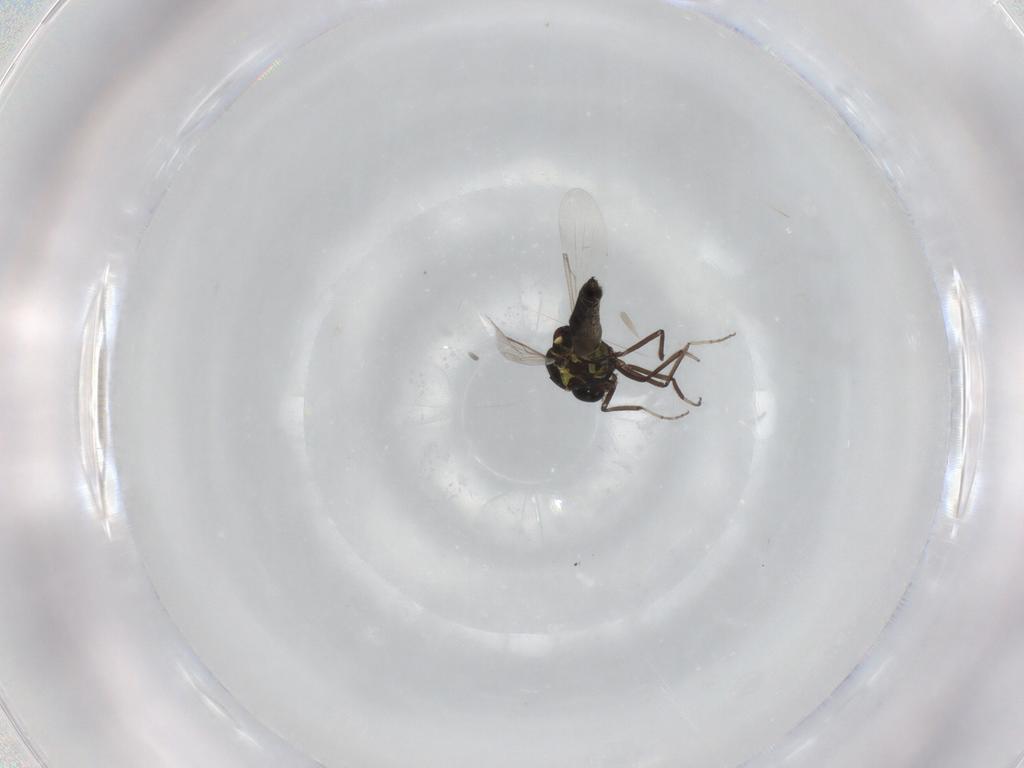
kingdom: Animalia
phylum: Arthropoda
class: Insecta
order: Diptera
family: Ceratopogonidae
